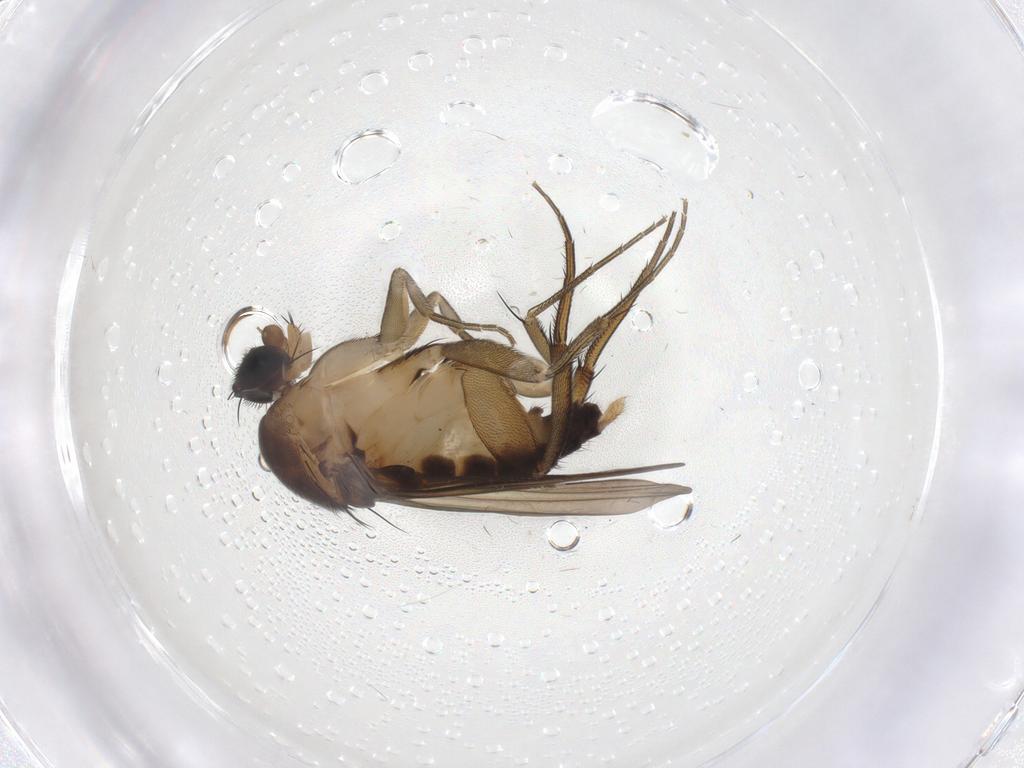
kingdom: Animalia
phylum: Arthropoda
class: Insecta
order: Diptera
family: Phoridae
